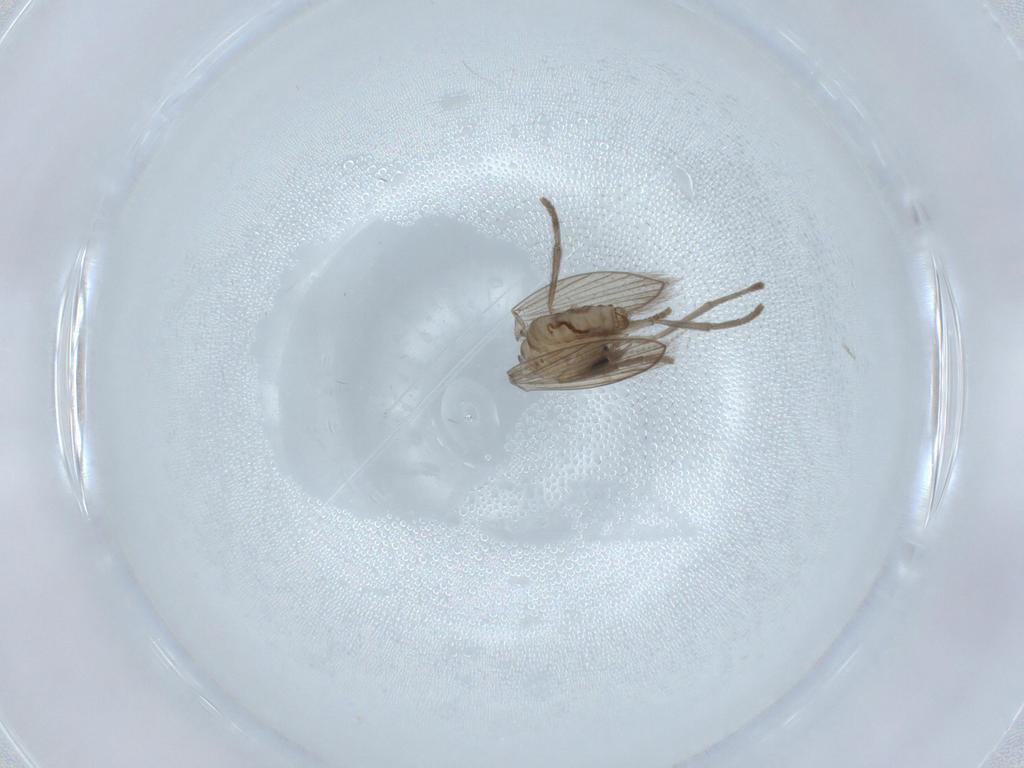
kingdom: Animalia
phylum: Arthropoda
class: Insecta
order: Diptera
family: Psychodidae
